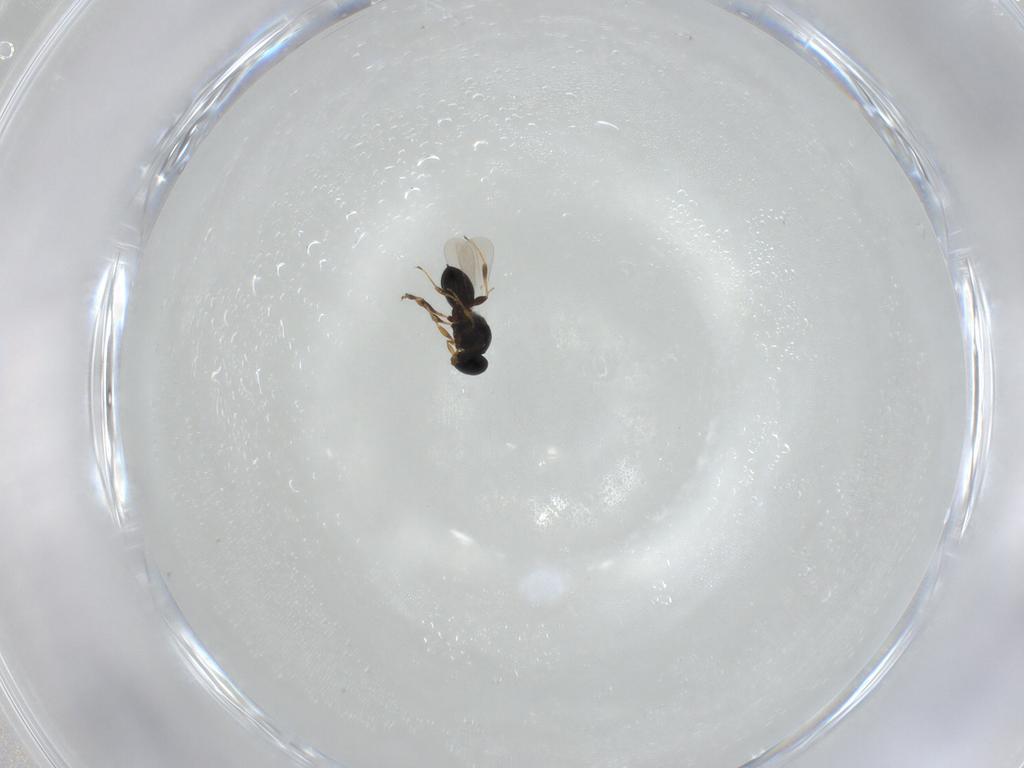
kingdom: Animalia
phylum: Arthropoda
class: Insecta
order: Hymenoptera
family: Platygastridae
